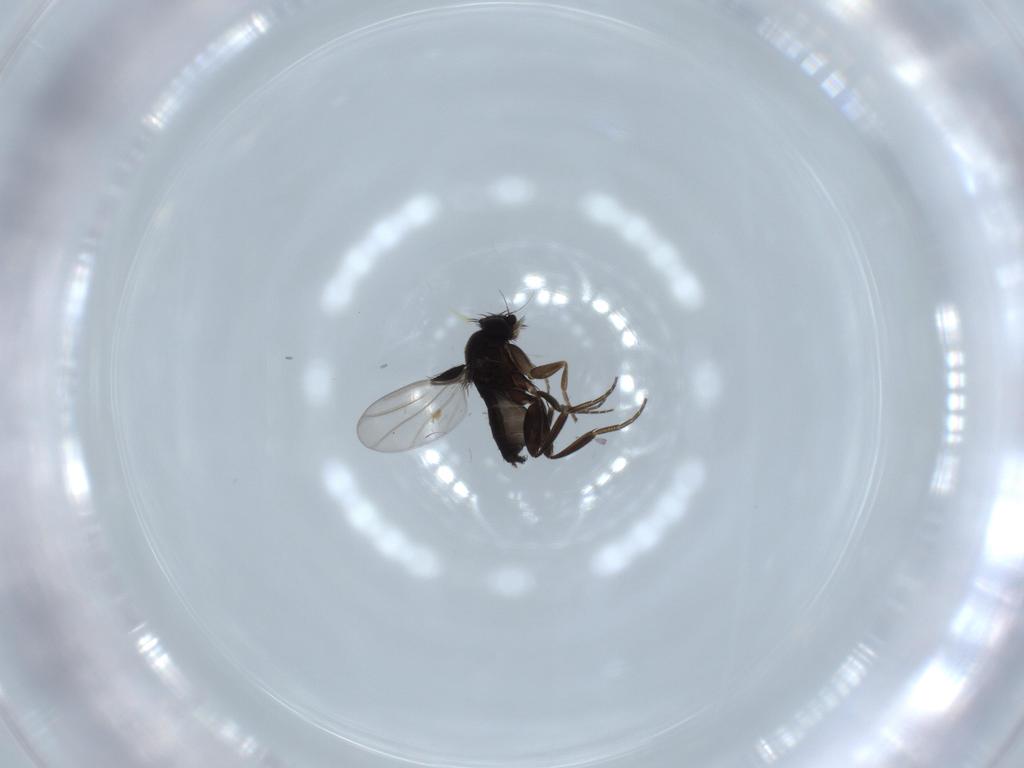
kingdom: Animalia
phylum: Arthropoda
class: Insecta
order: Diptera
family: Phoridae
